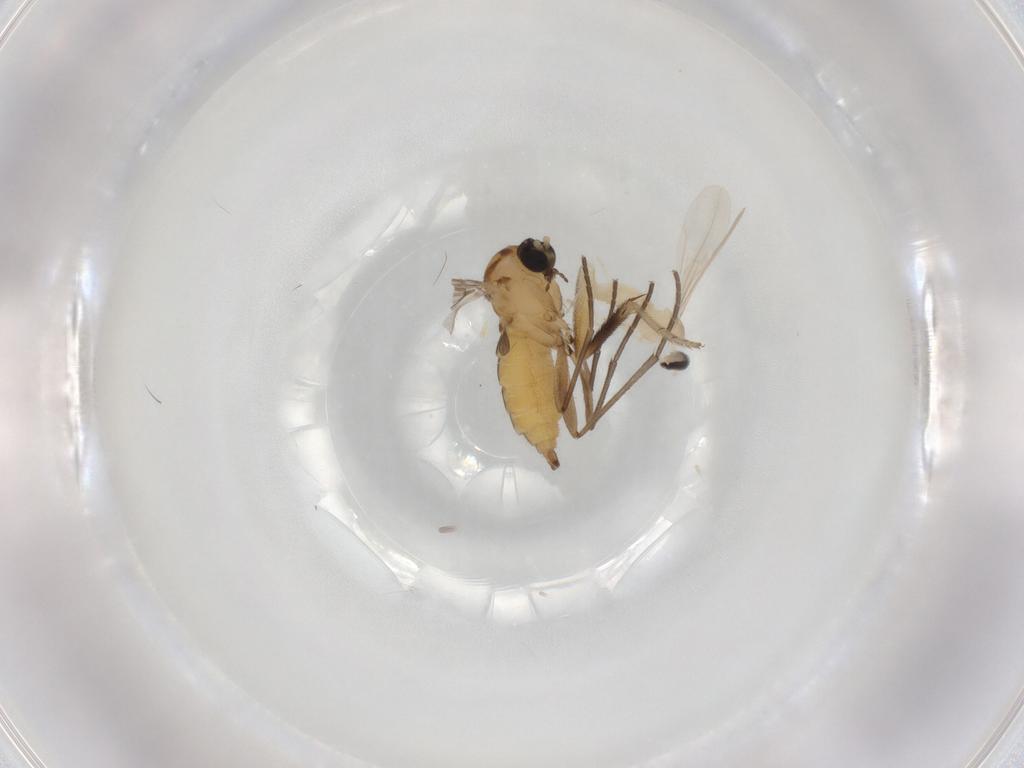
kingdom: Animalia
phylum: Arthropoda
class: Insecta
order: Diptera
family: Sciaridae
